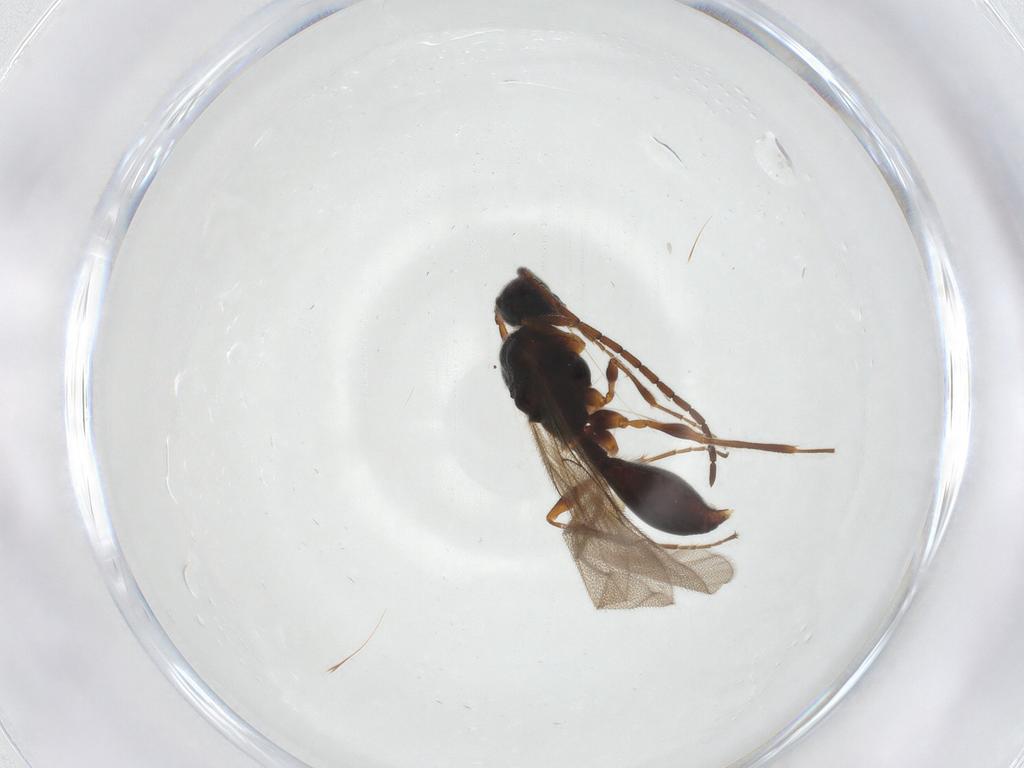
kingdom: Animalia
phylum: Arthropoda
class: Insecta
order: Hymenoptera
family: Diapriidae
